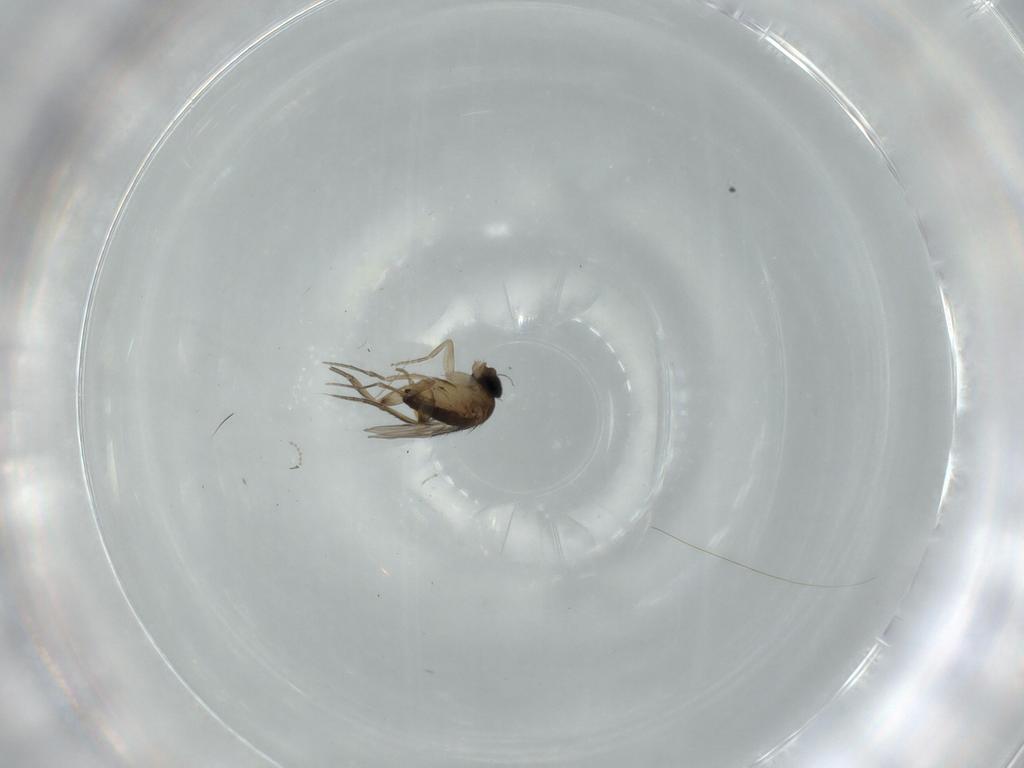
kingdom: Animalia
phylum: Arthropoda
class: Insecta
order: Diptera
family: Phoridae
